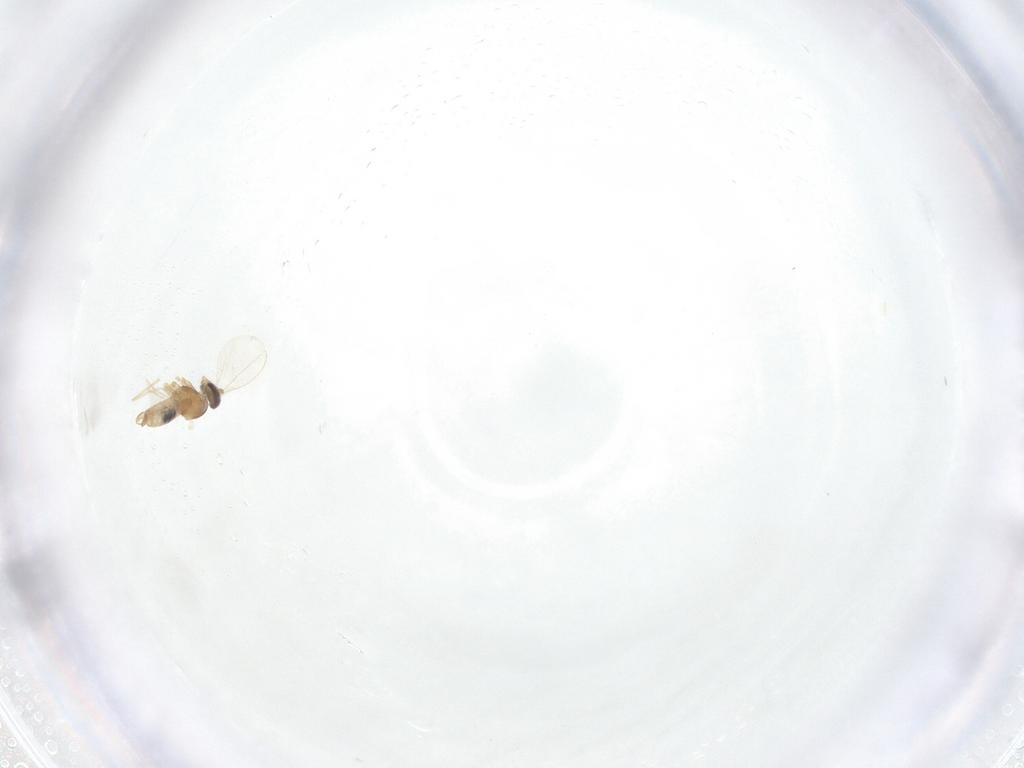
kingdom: Animalia
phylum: Arthropoda
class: Insecta
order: Diptera
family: Cecidomyiidae
